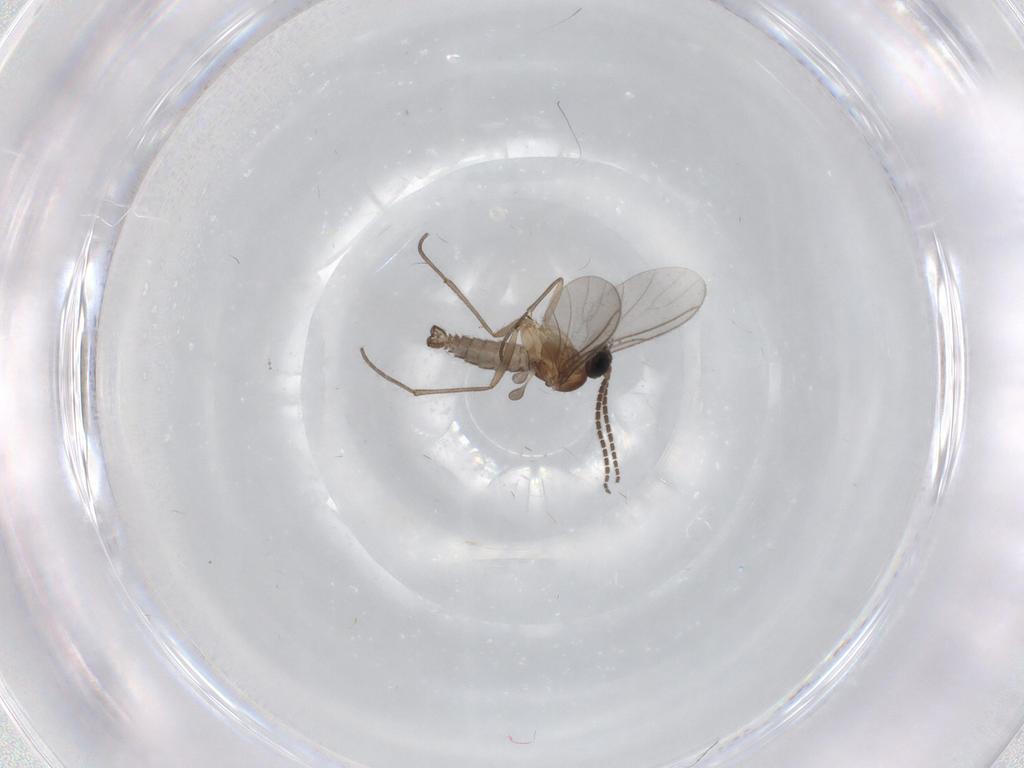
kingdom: Animalia
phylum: Arthropoda
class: Insecta
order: Diptera
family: Sciaridae
